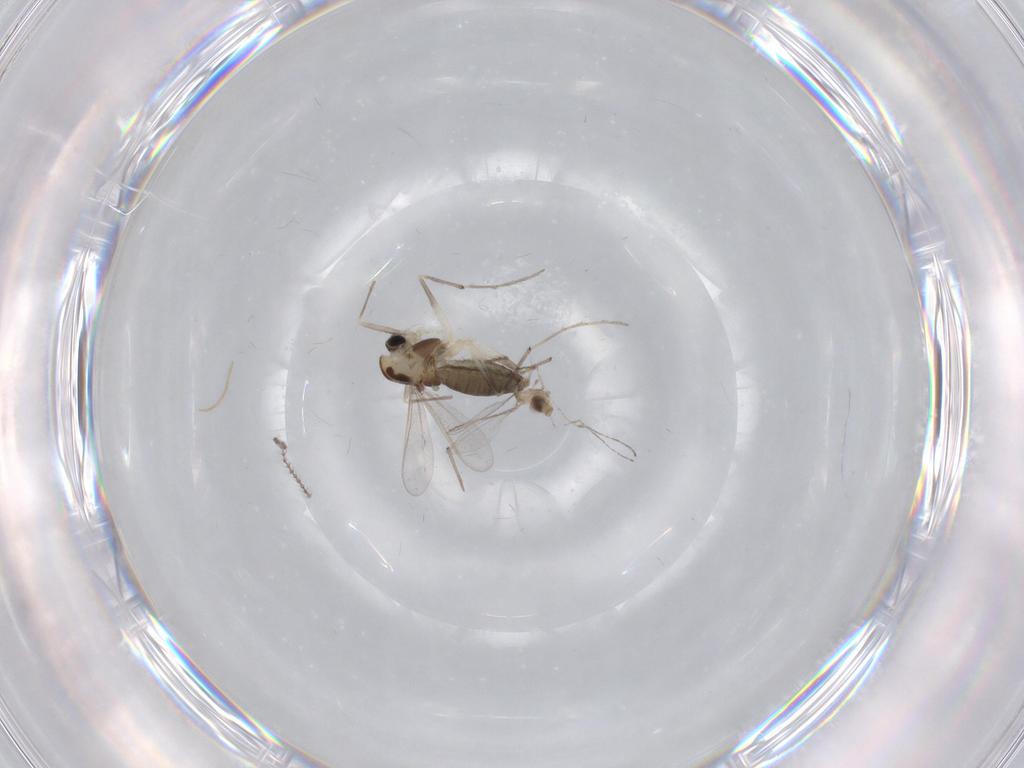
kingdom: Animalia
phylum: Arthropoda
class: Insecta
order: Diptera
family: Chironomidae
